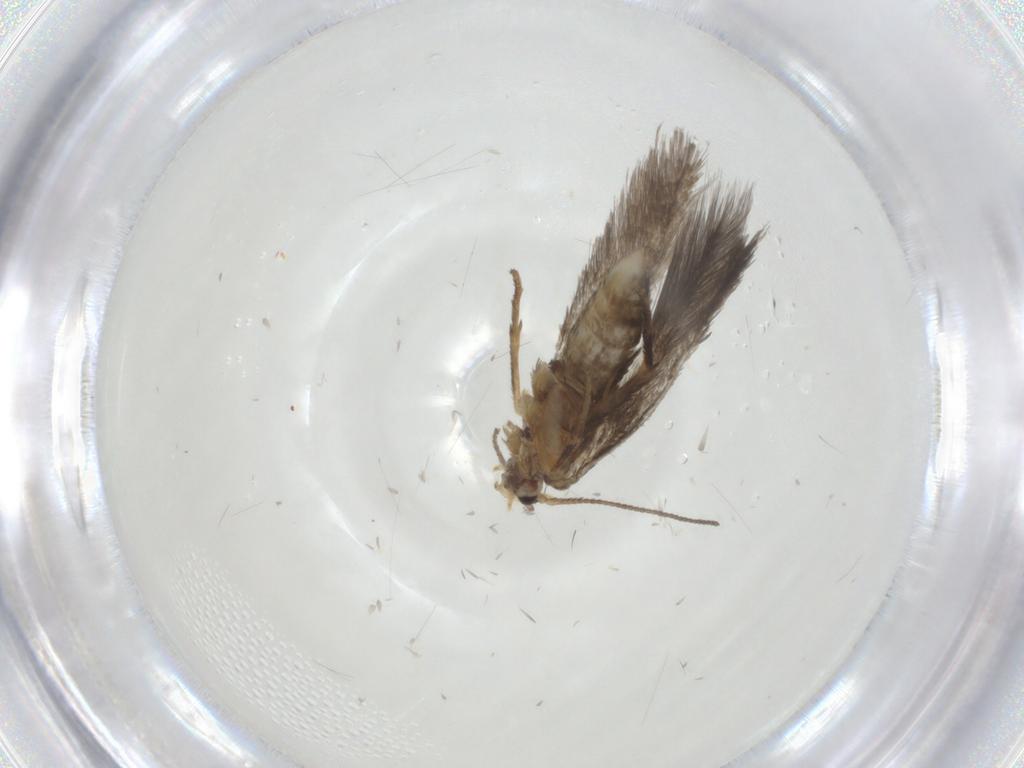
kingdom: Animalia
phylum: Arthropoda
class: Insecta
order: Lepidoptera
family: Nepticulidae
